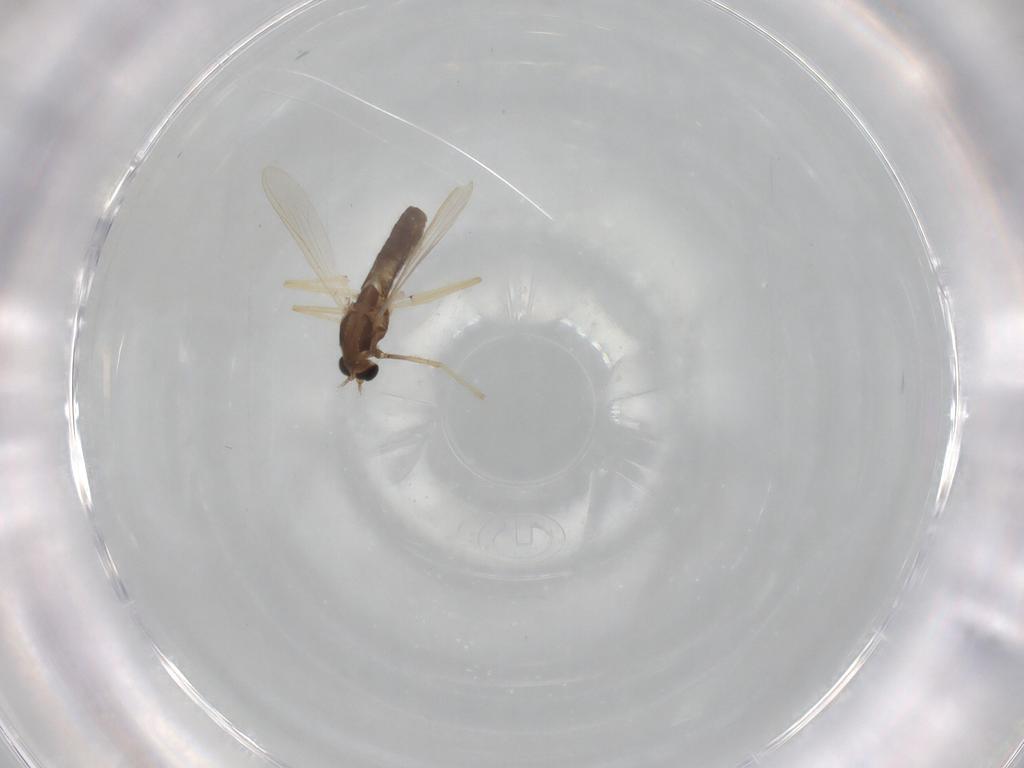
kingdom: Animalia
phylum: Arthropoda
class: Insecta
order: Diptera
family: Chironomidae
